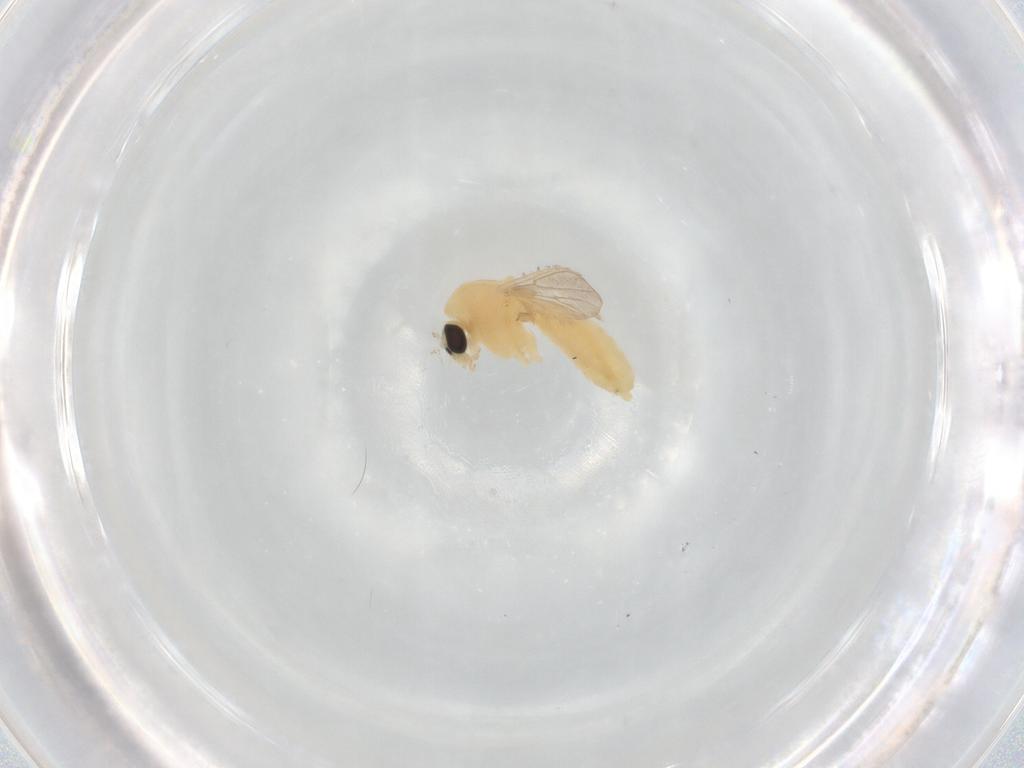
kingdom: Animalia
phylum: Arthropoda
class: Insecta
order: Diptera
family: Chironomidae
